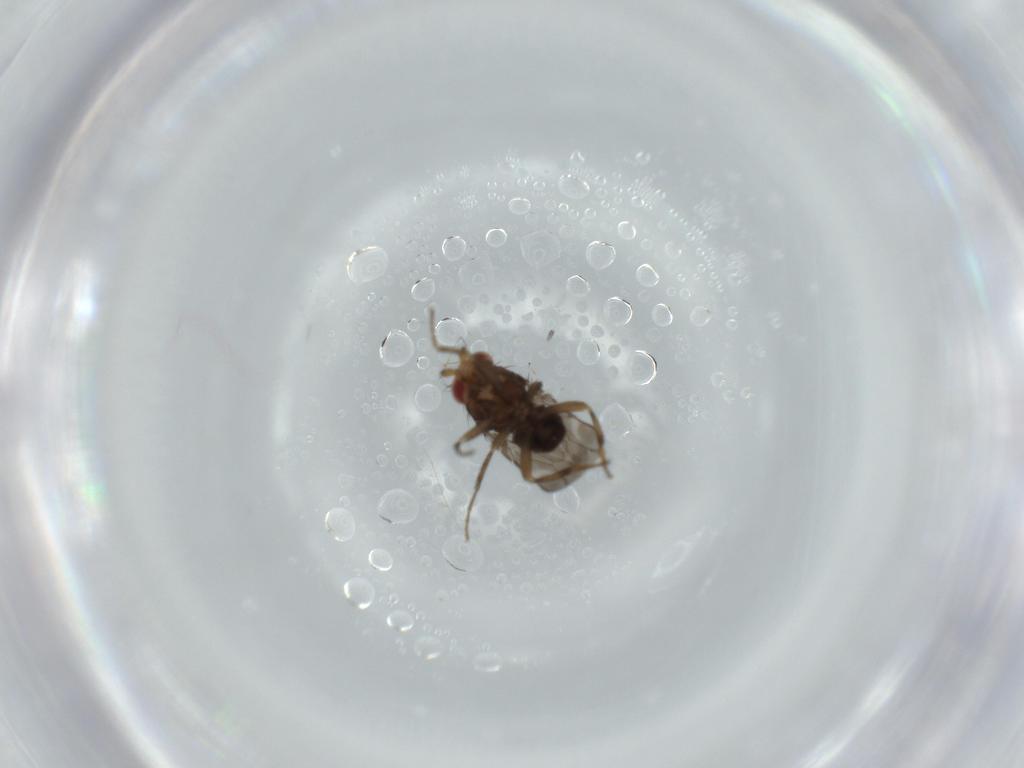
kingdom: Animalia
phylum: Arthropoda
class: Insecta
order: Diptera
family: Sphaeroceridae
